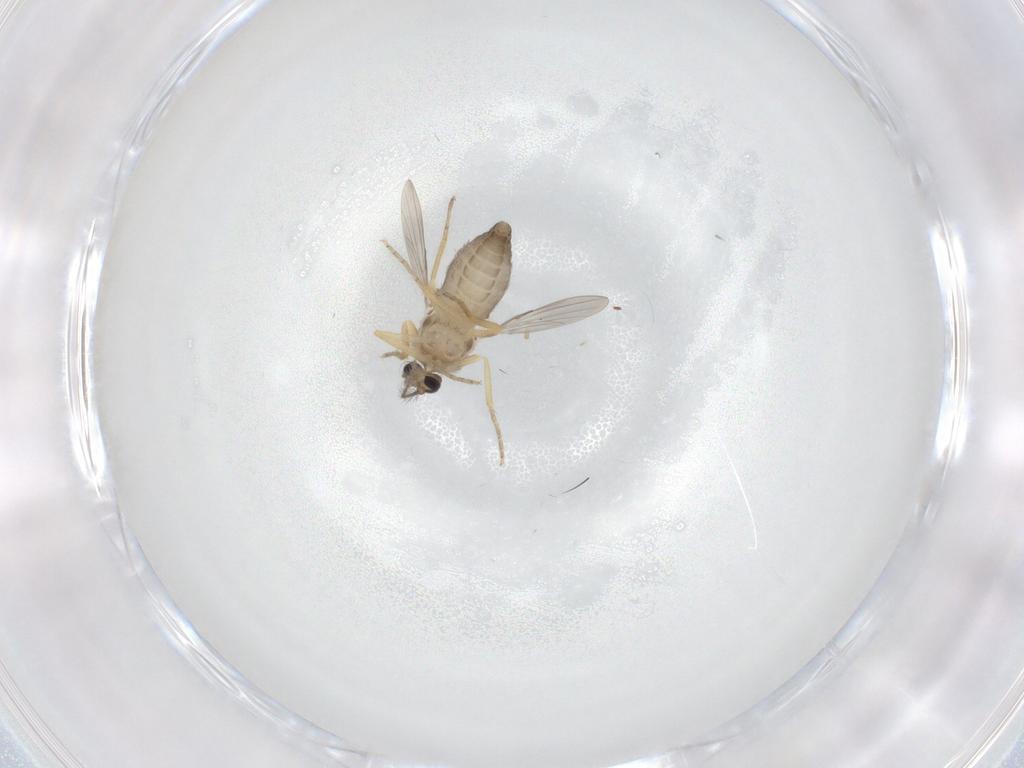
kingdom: Animalia
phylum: Arthropoda
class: Insecta
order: Diptera
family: Ceratopogonidae
